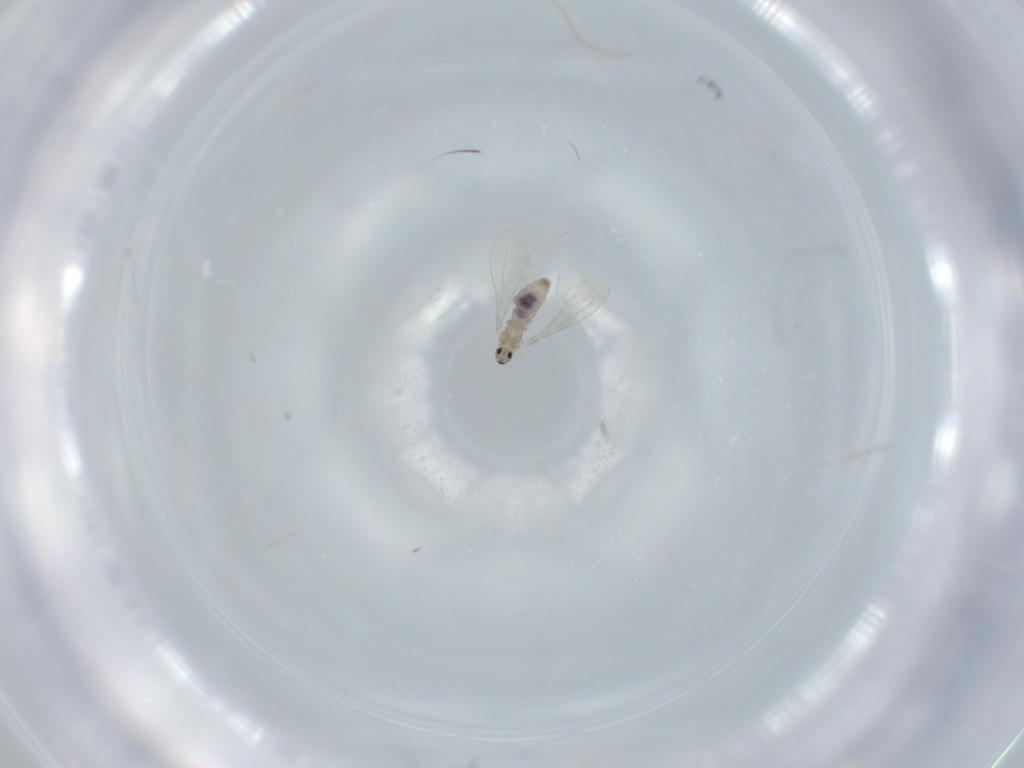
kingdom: Animalia
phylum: Arthropoda
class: Insecta
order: Diptera
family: Cecidomyiidae
